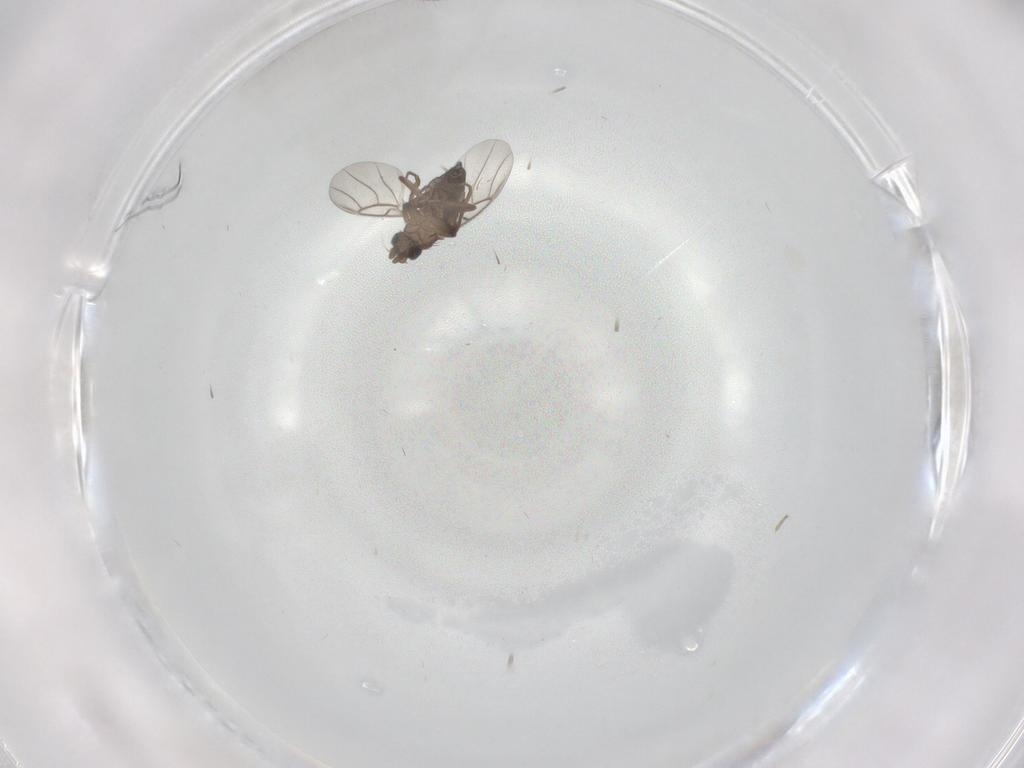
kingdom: Animalia
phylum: Arthropoda
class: Insecta
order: Diptera
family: Phoridae
